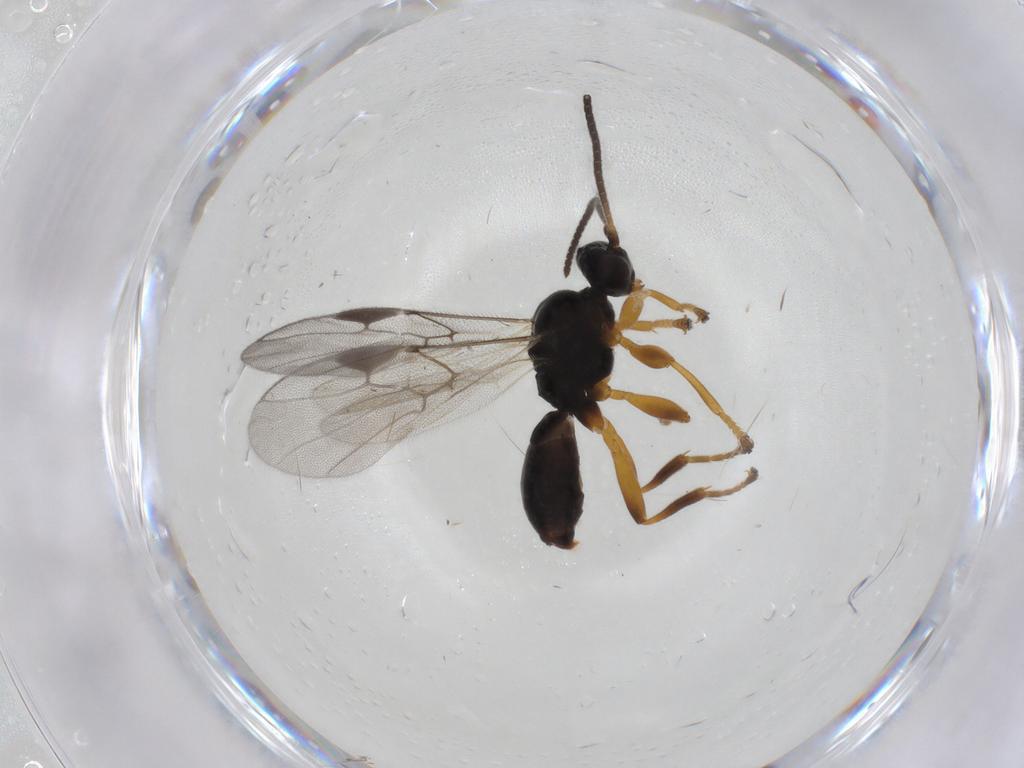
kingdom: Animalia
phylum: Arthropoda
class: Insecta
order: Hymenoptera
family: Braconidae
